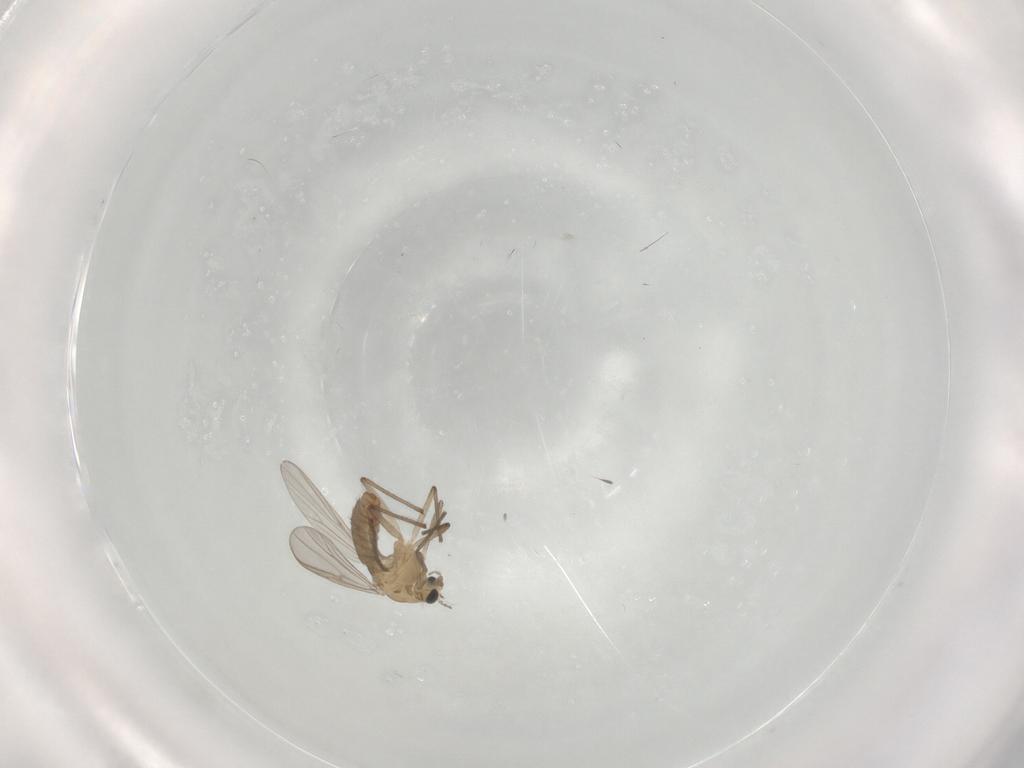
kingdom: Animalia
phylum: Arthropoda
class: Insecta
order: Diptera
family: Chironomidae
